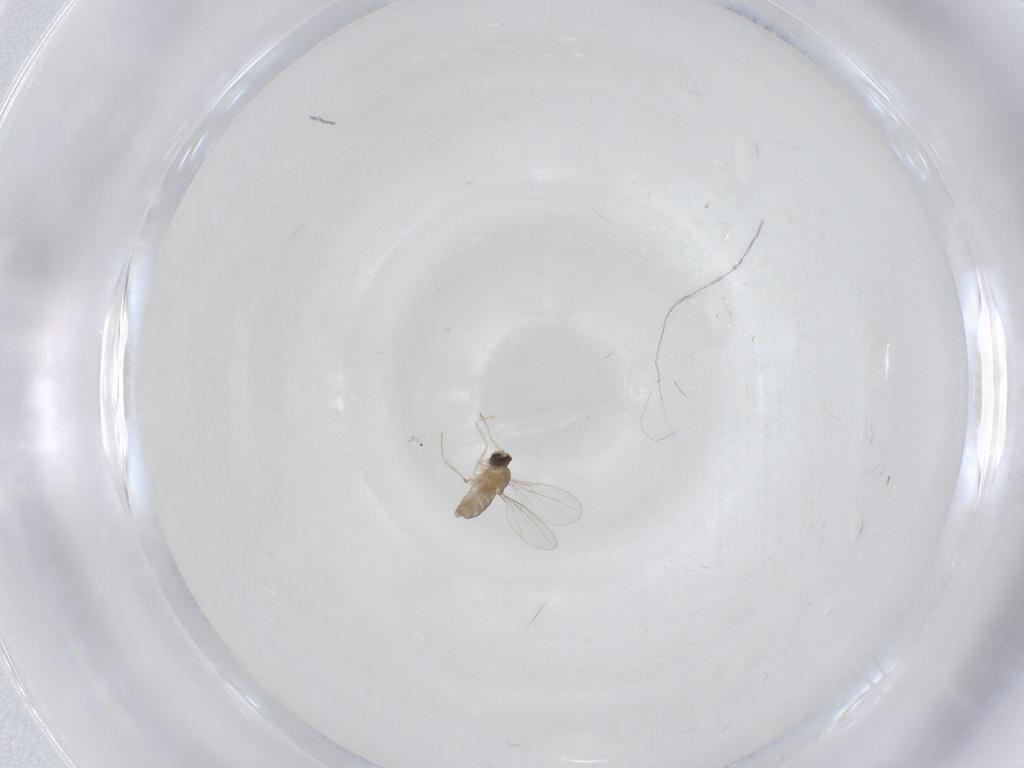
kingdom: Animalia
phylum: Arthropoda
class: Insecta
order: Diptera
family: Cecidomyiidae
